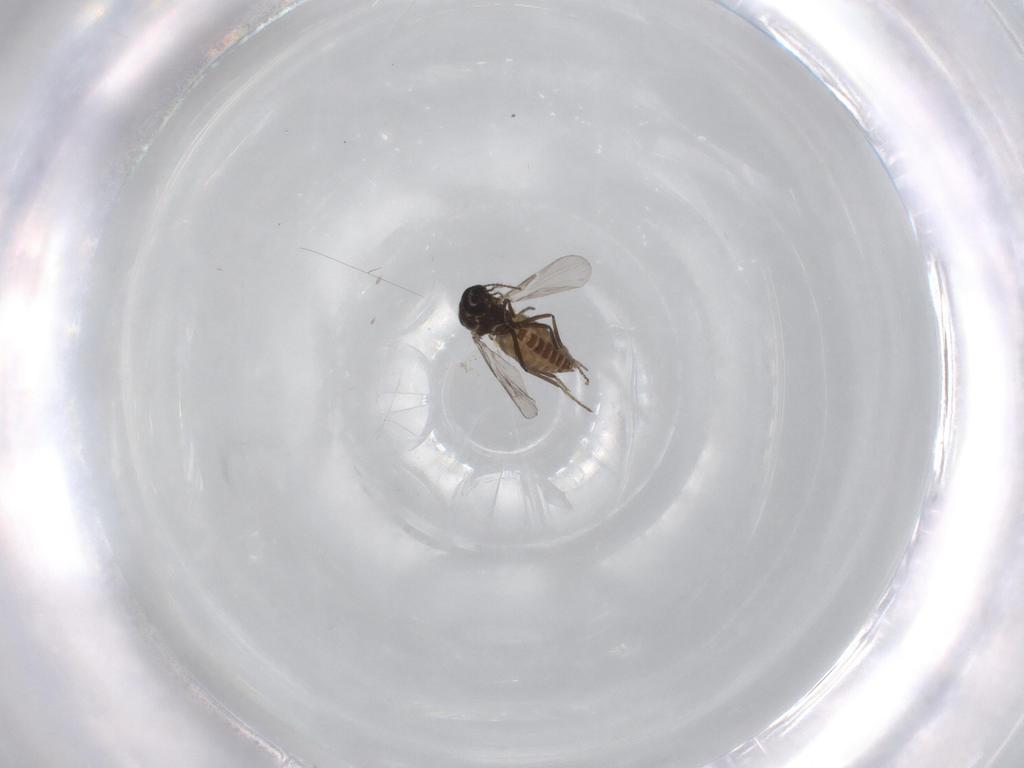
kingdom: Animalia
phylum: Arthropoda
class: Insecta
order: Diptera
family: Ceratopogonidae
